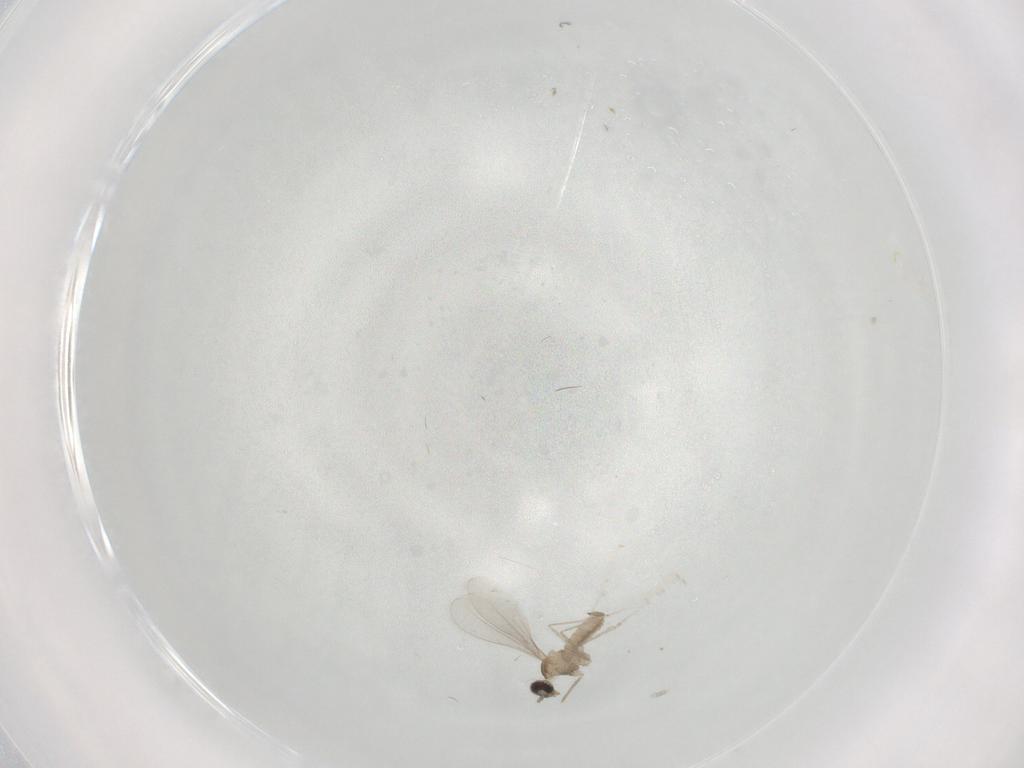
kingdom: Animalia
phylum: Arthropoda
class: Insecta
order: Diptera
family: Cecidomyiidae
